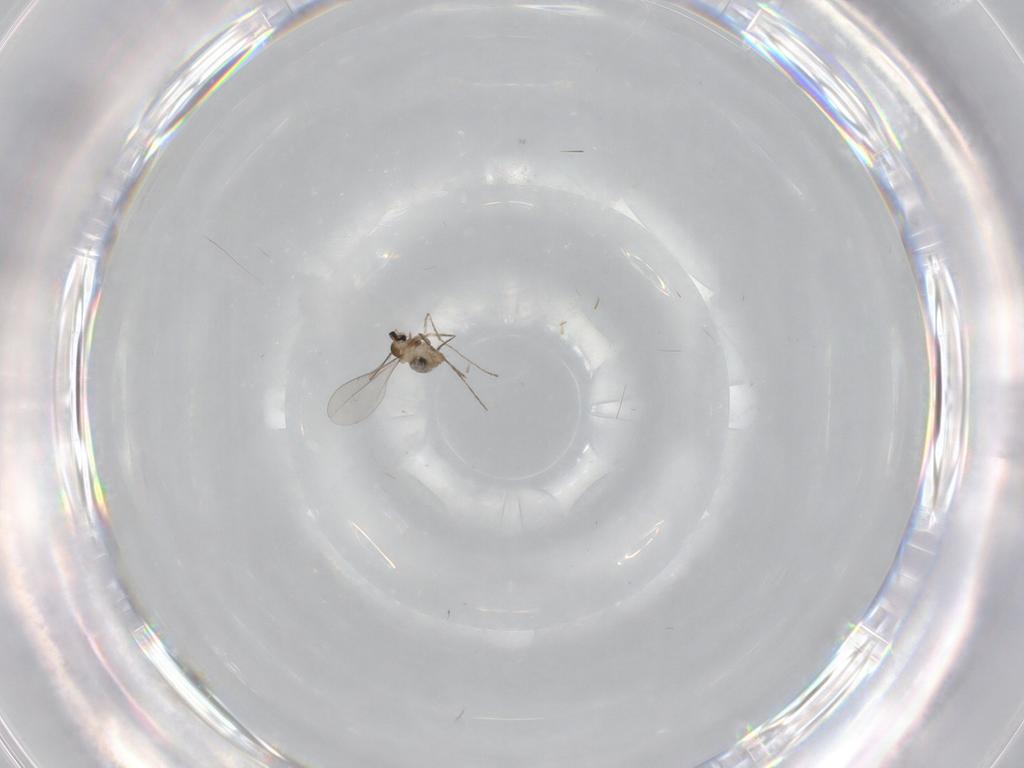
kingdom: Animalia
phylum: Arthropoda
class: Insecta
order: Diptera
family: Cecidomyiidae
